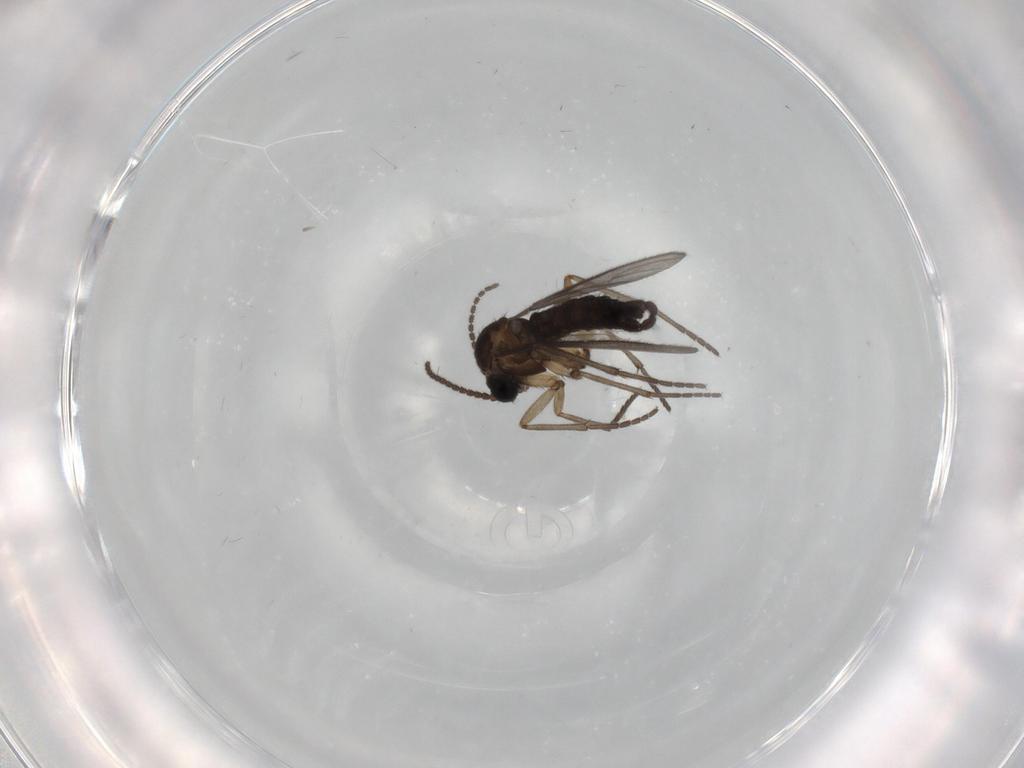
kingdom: Animalia
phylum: Arthropoda
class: Insecta
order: Diptera
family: Sciaridae
